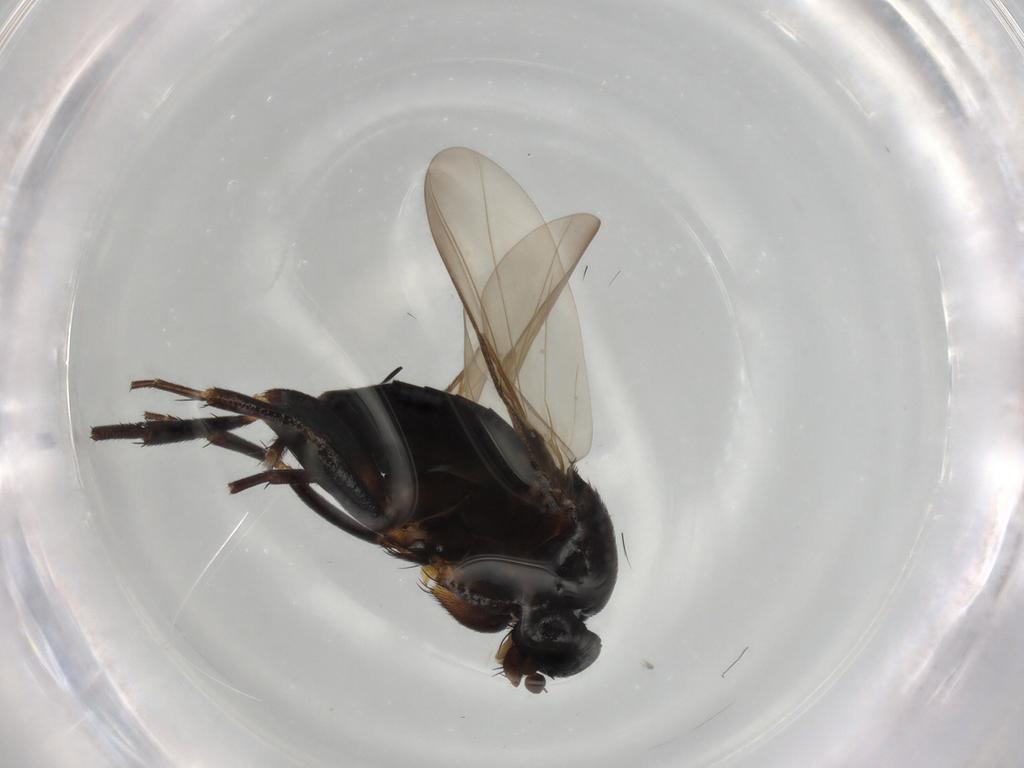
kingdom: Animalia
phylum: Arthropoda
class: Insecta
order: Diptera
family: Phoridae
